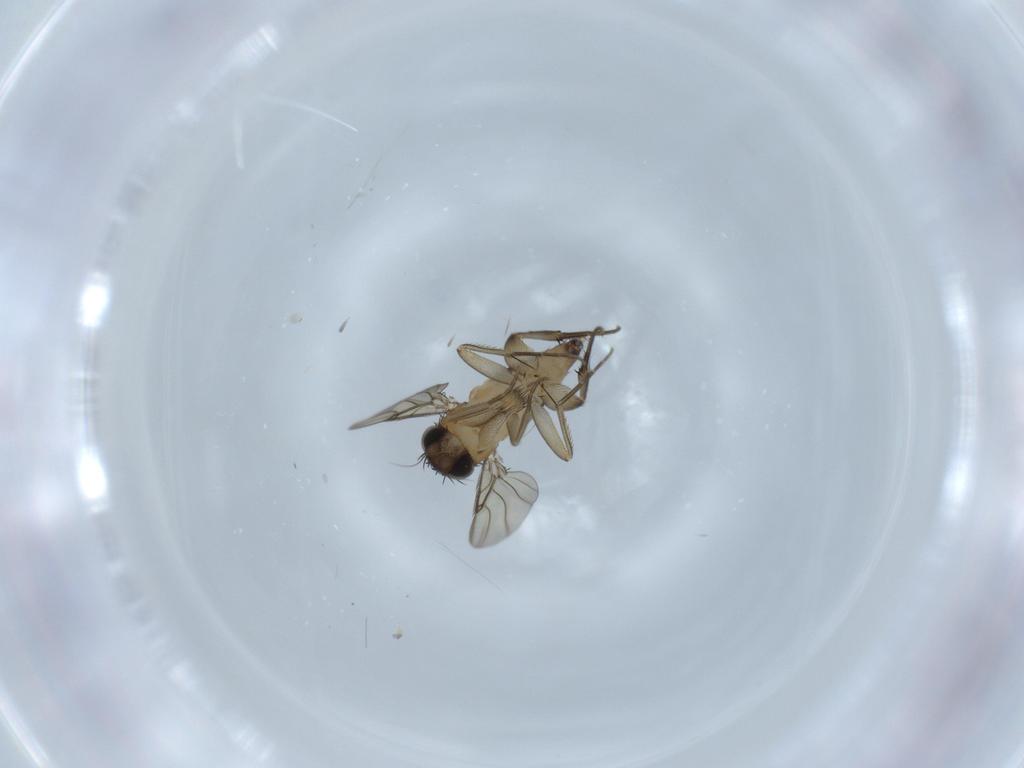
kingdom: Animalia
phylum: Arthropoda
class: Insecta
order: Diptera
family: Phoridae
